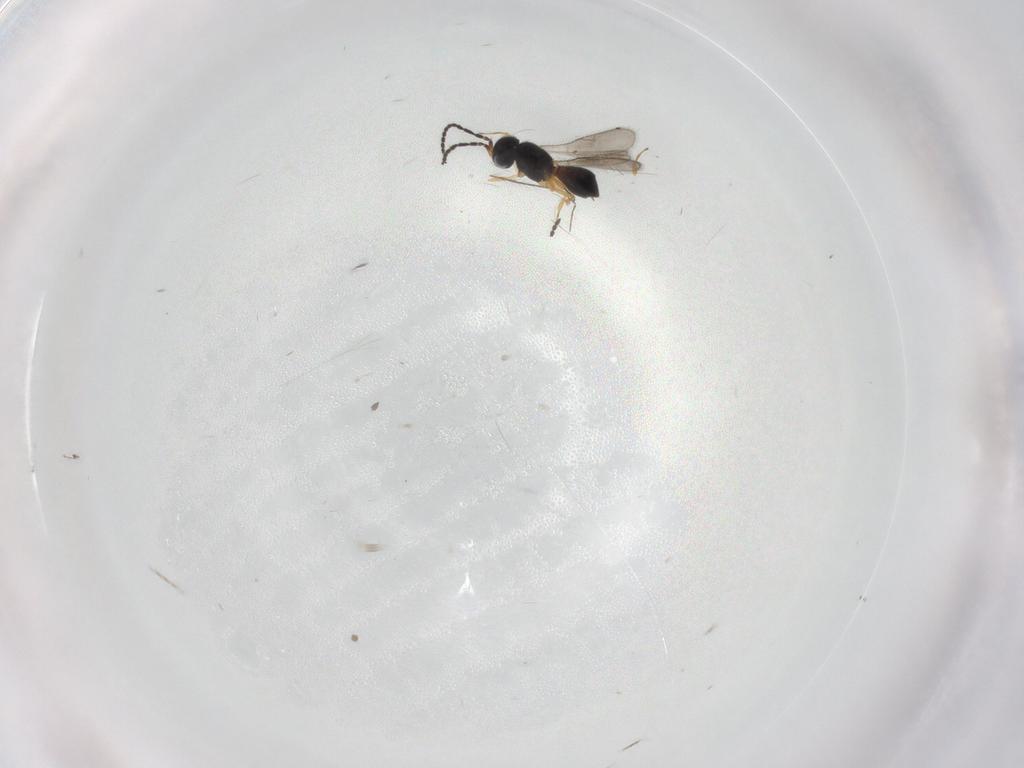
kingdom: Animalia
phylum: Arthropoda
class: Insecta
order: Hymenoptera
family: Scelionidae
